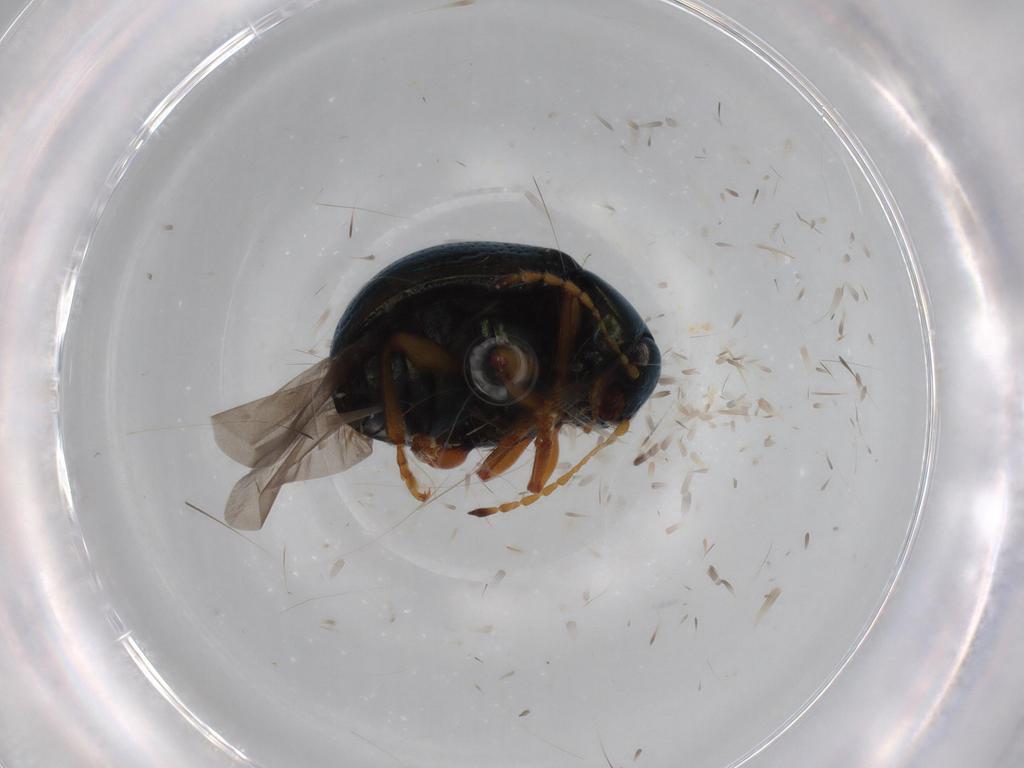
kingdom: Animalia
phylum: Arthropoda
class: Insecta
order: Coleoptera
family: Chrysomelidae
